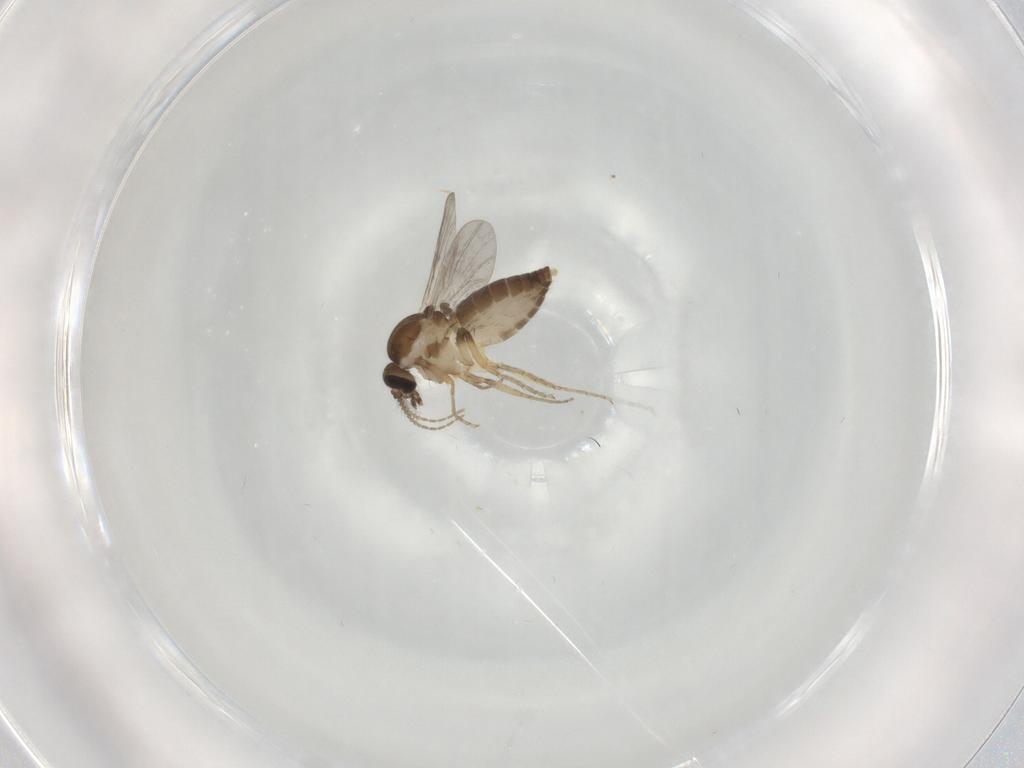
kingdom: Animalia
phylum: Arthropoda
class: Insecta
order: Diptera
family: Ceratopogonidae
